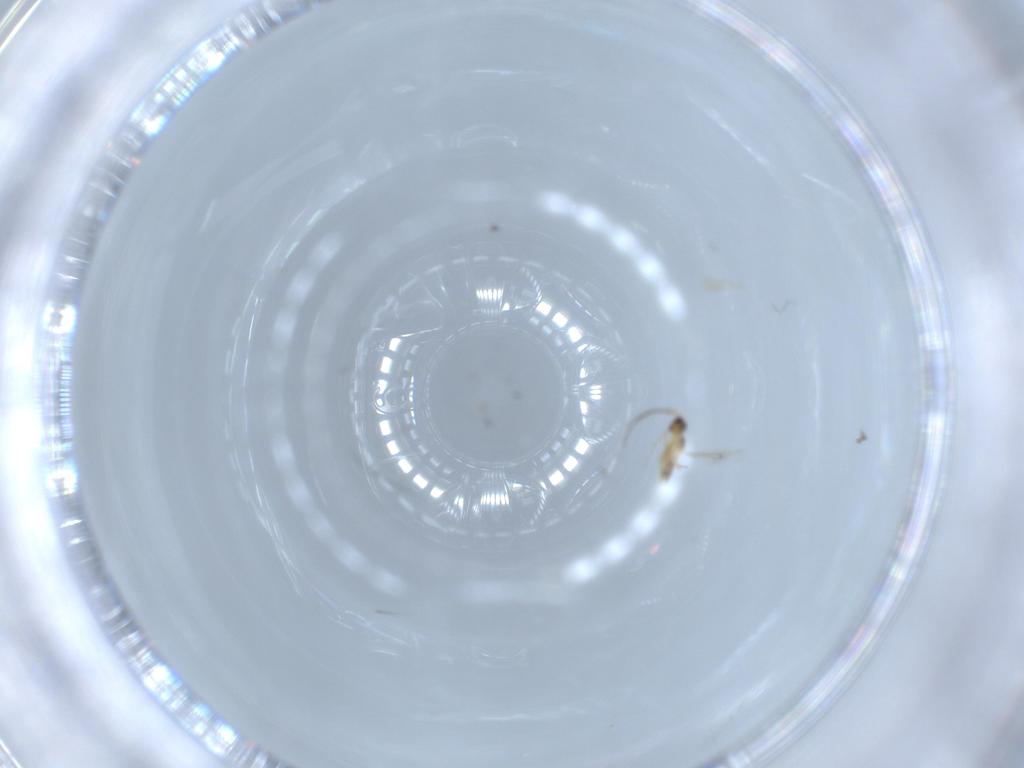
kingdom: Animalia
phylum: Arthropoda
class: Insecta
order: Hymenoptera
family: Mymaridae
